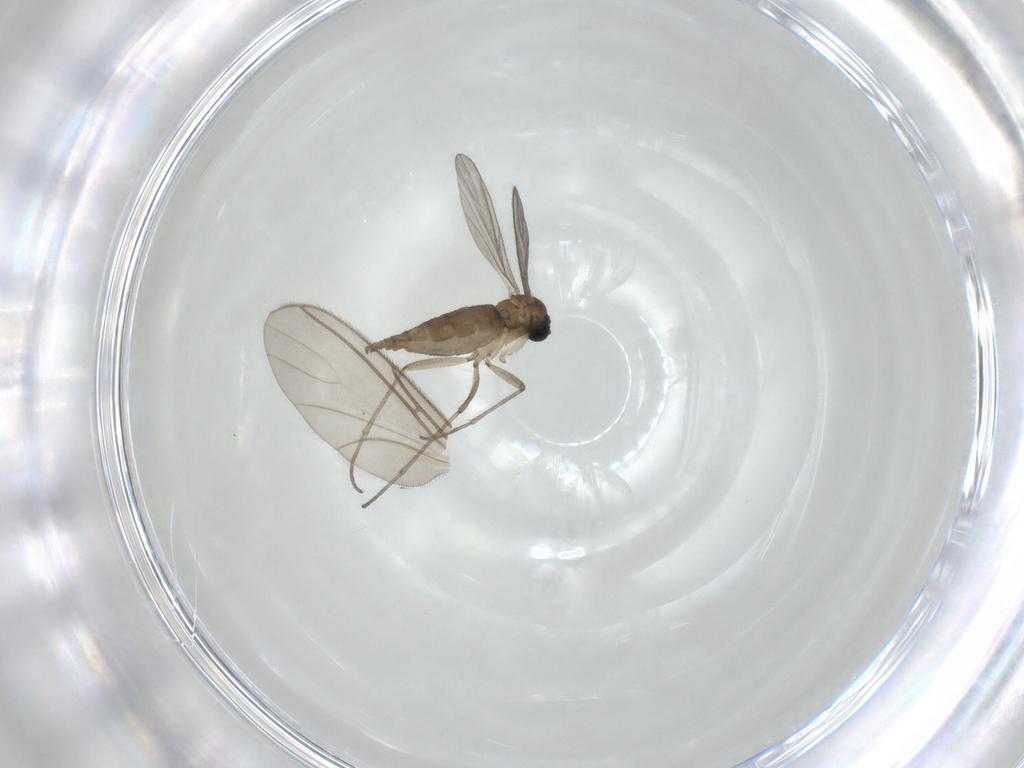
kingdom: Animalia
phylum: Arthropoda
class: Insecta
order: Diptera
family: Sciaridae
